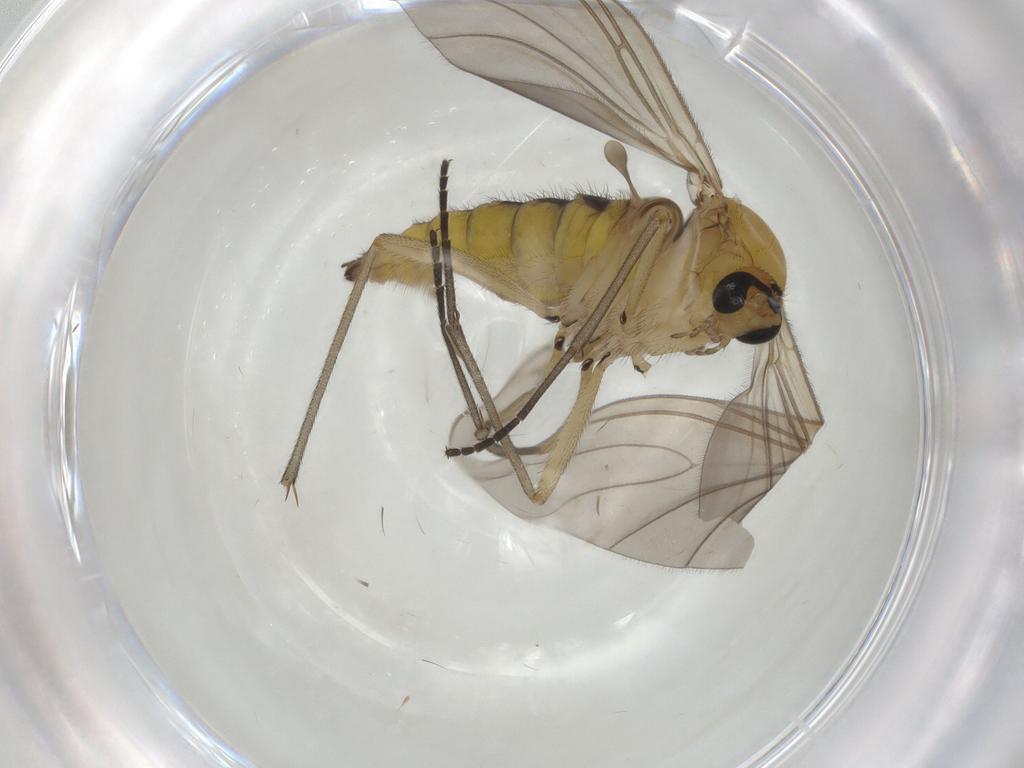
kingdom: Animalia
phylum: Arthropoda
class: Insecta
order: Diptera
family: Sciaridae
